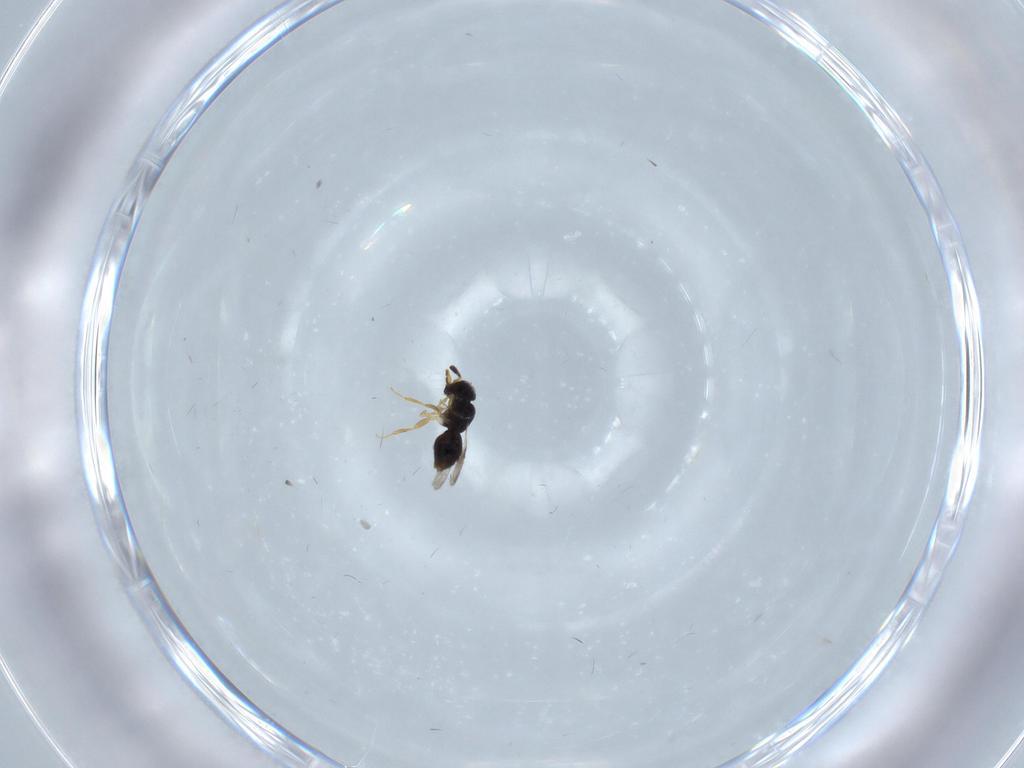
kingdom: Animalia
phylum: Arthropoda
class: Insecta
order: Hymenoptera
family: Ceraphronidae
